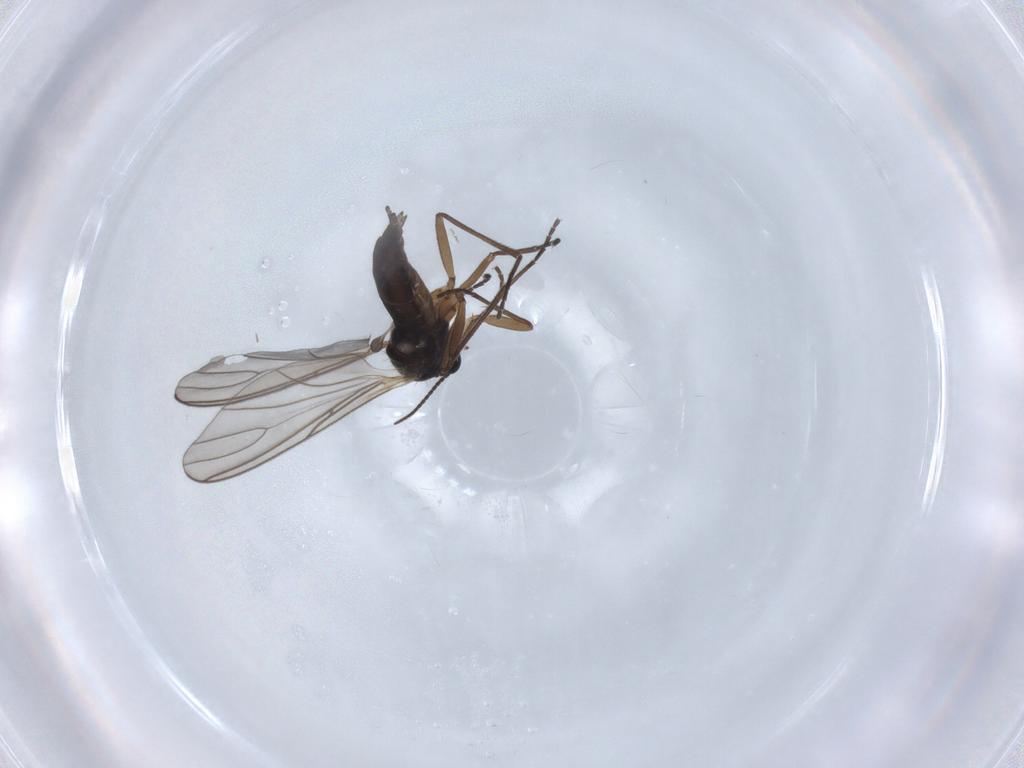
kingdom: Animalia
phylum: Arthropoda
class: Insecta
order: Diptera
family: Sciaridae
